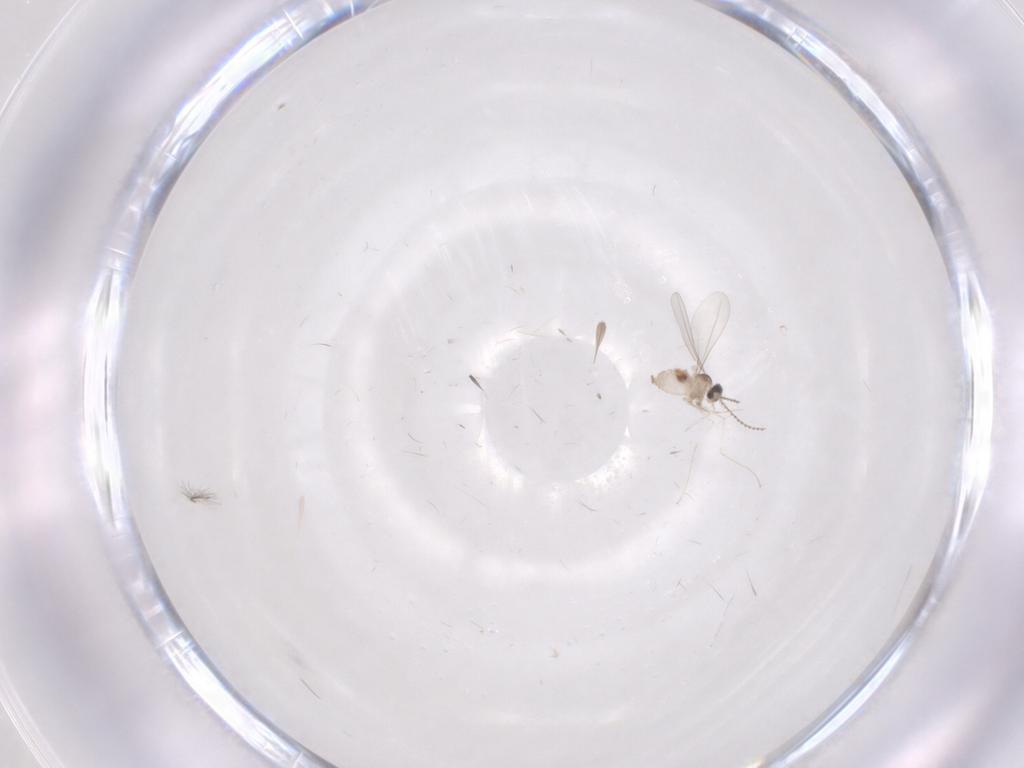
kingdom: Animalia
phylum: Arthropoda
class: Insecta
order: Diptera
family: Cecidomyiidae
